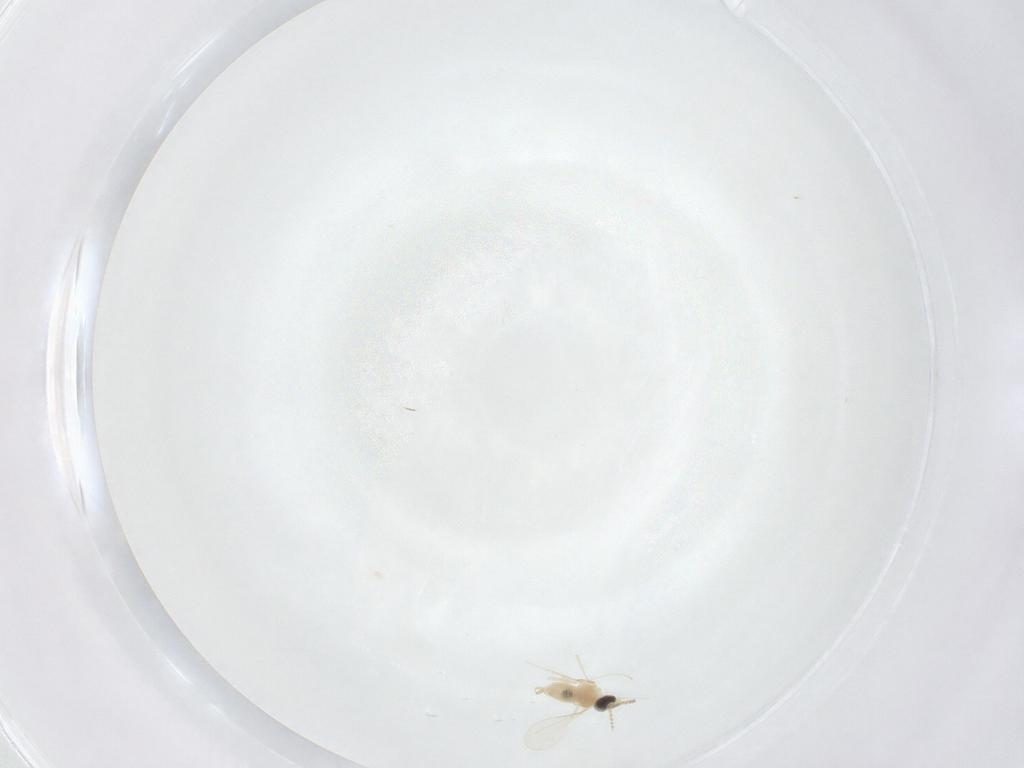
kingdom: Animalia
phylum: Arthropoda
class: Insecta
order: Diptera
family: Cecidomyiidae
